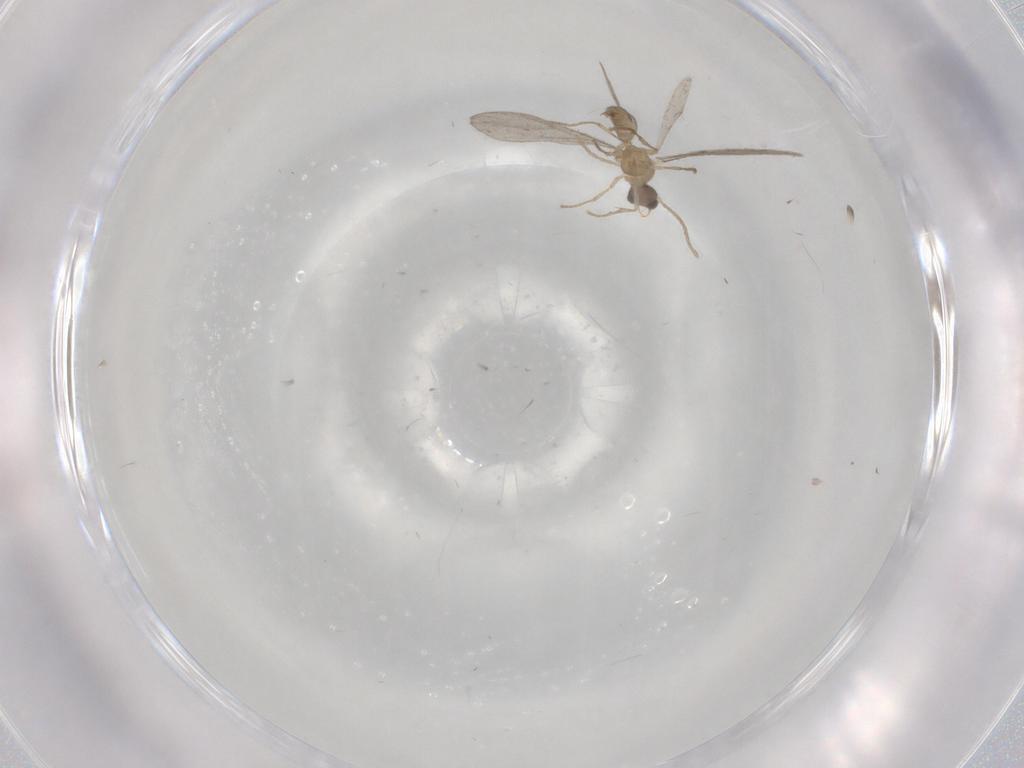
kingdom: Animalia
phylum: Arthropoda
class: Insecta
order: Hymenoptera
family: Formicidae
